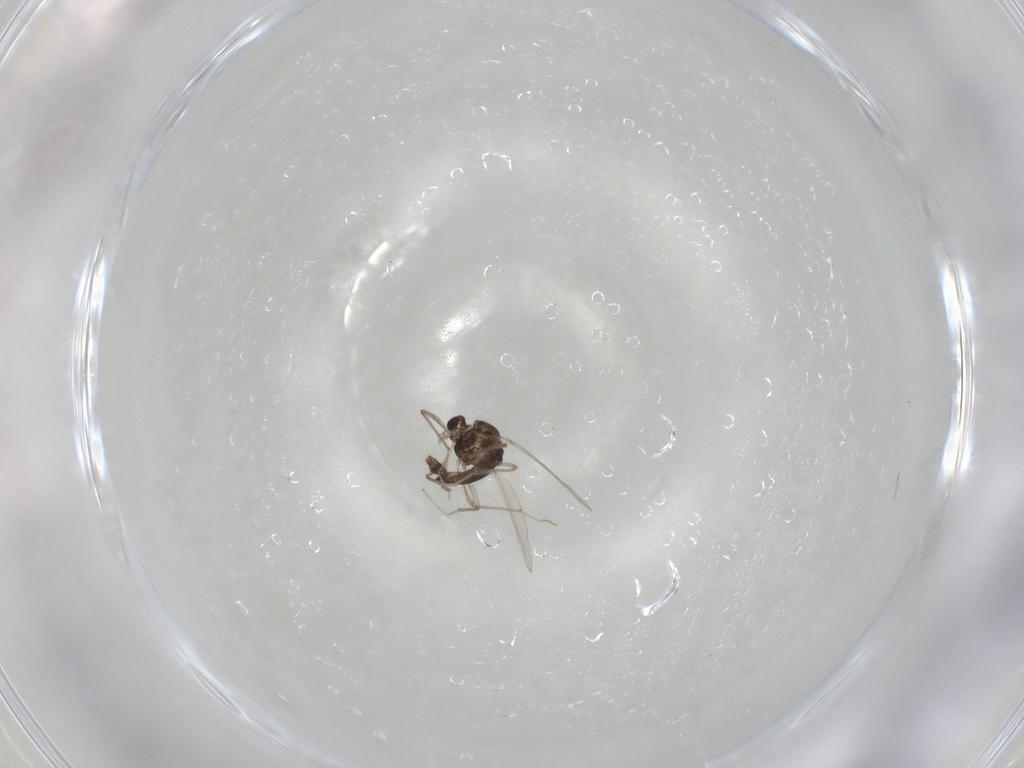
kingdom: Animalia
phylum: Arthropoda
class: Insecta
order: Diptera
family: Chironomidae
